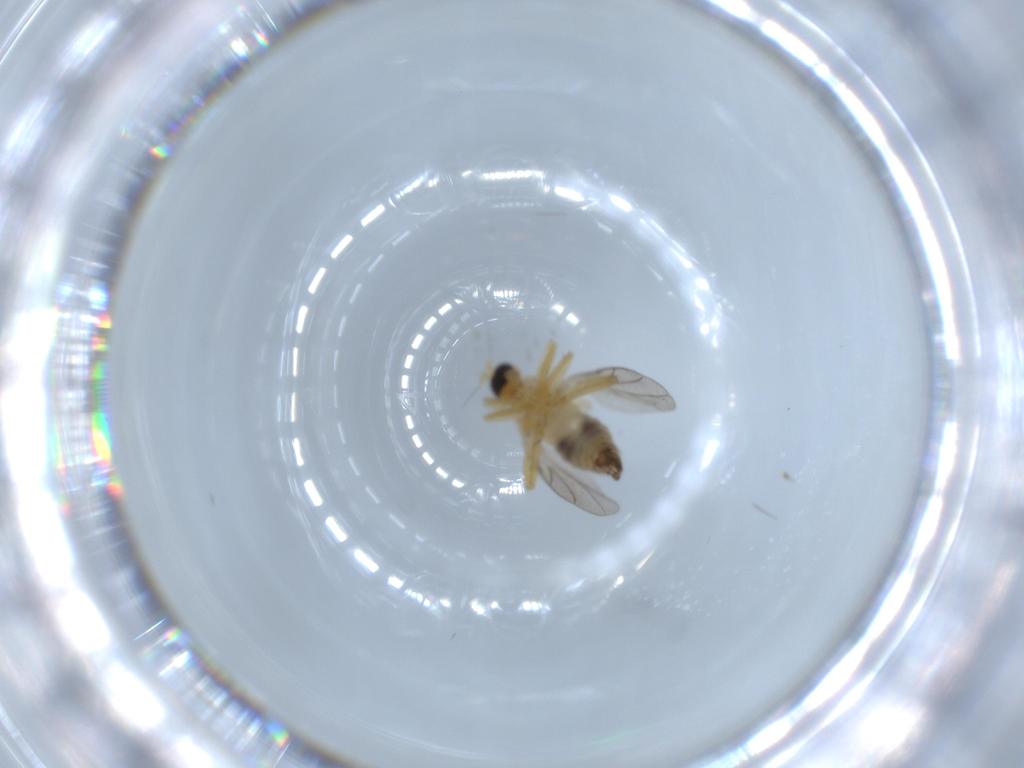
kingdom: Animalia
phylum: Arthropoda
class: Insecta
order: Diptera
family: Hybotidae
